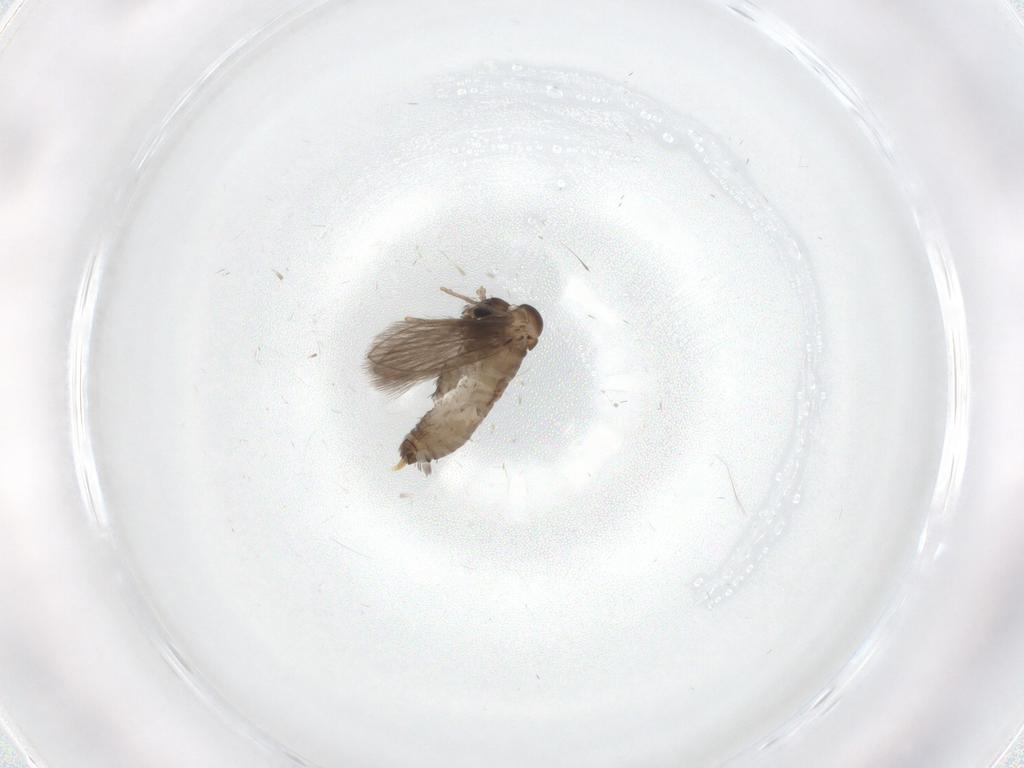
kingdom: Animalia
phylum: Arthropoda
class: Insecta
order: Diptera
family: Psychodidae
